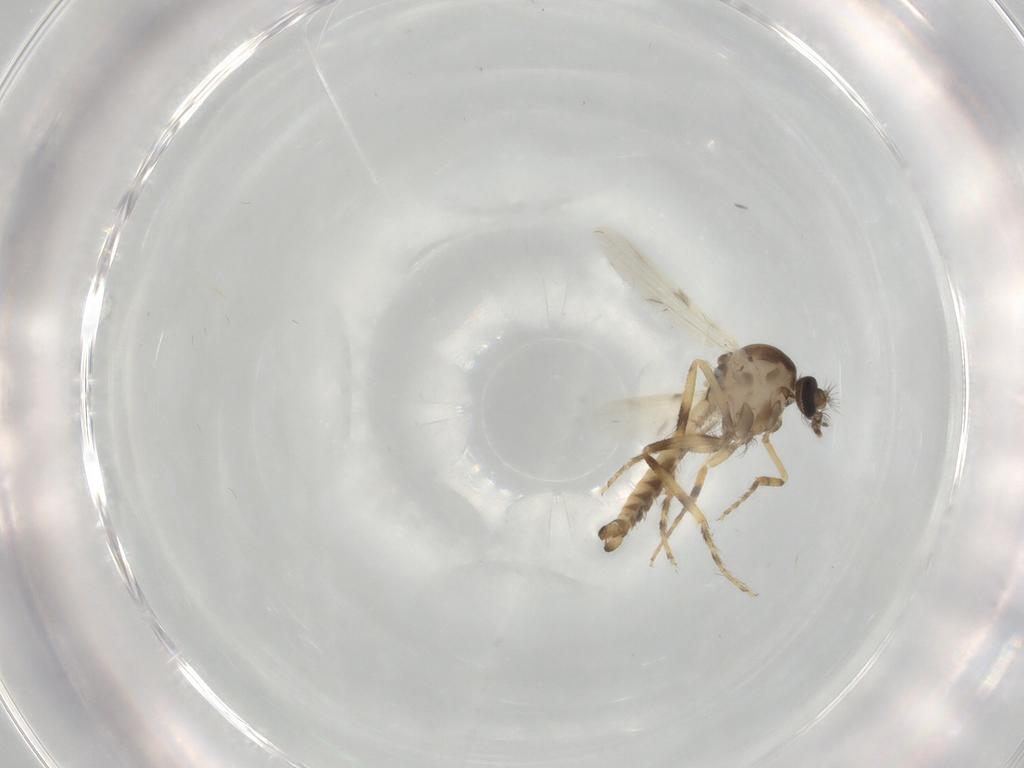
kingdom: Animalia
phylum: Arthropoda
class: Insecta
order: Diptera
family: Ceratopogonidae
